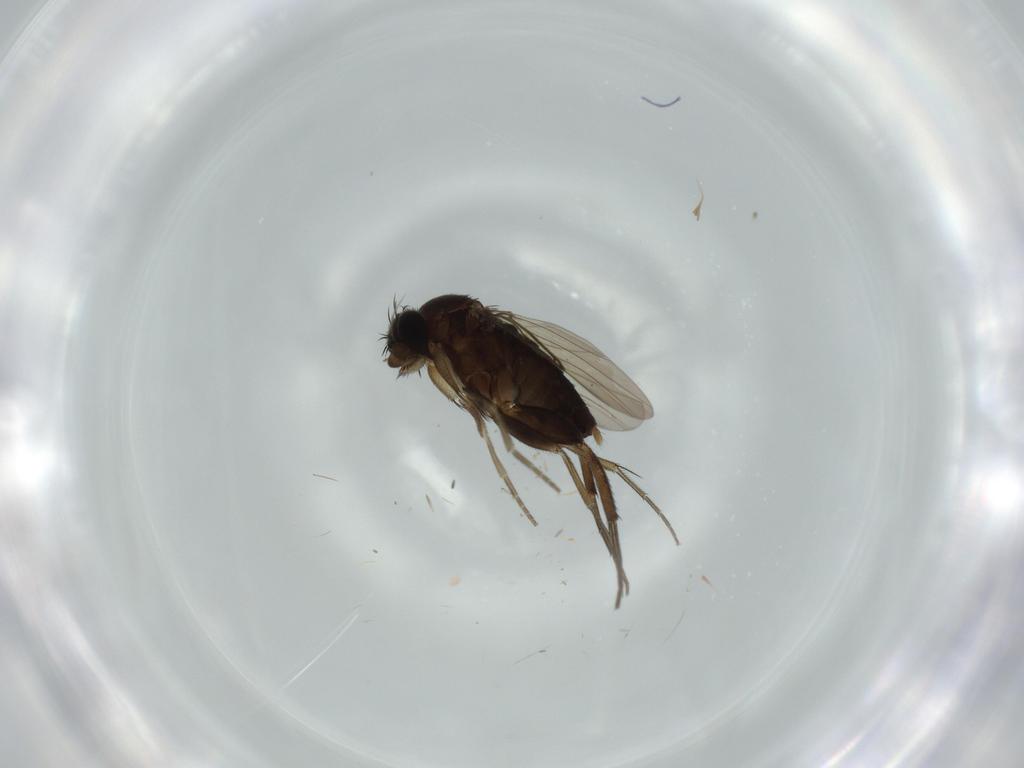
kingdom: Animalia
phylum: Arthropoda
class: Insecta
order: Diptera
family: Phoridae
